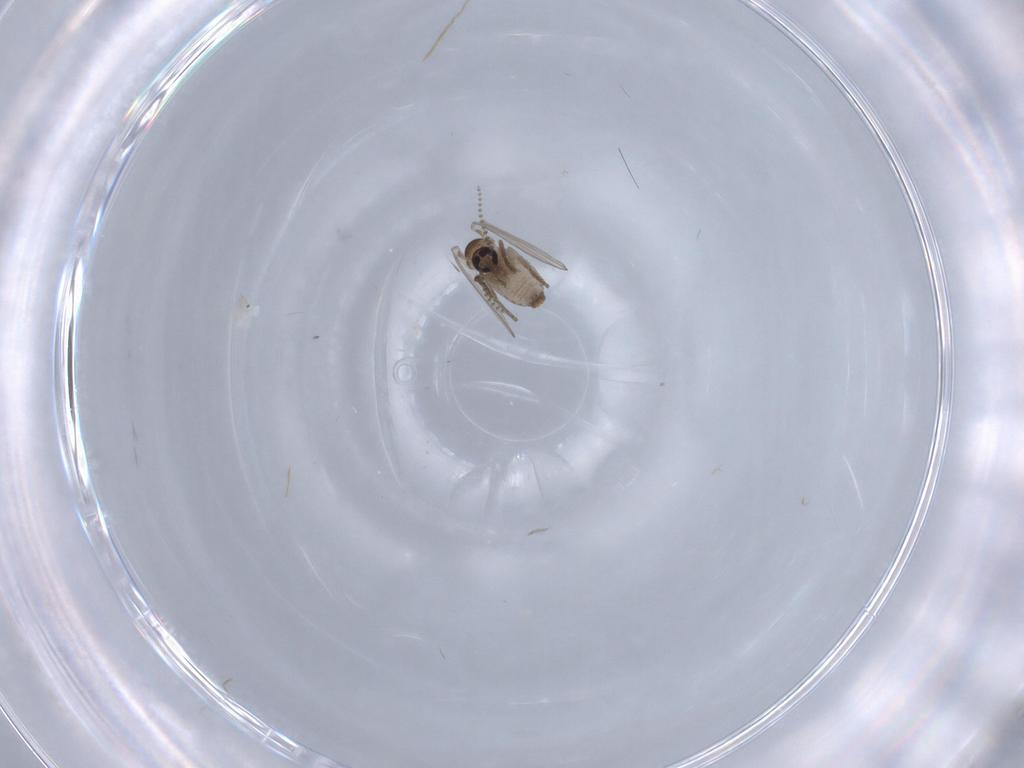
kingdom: Animalia
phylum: Arthropoda
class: Insecta
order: Diptera
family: Psychodidae
